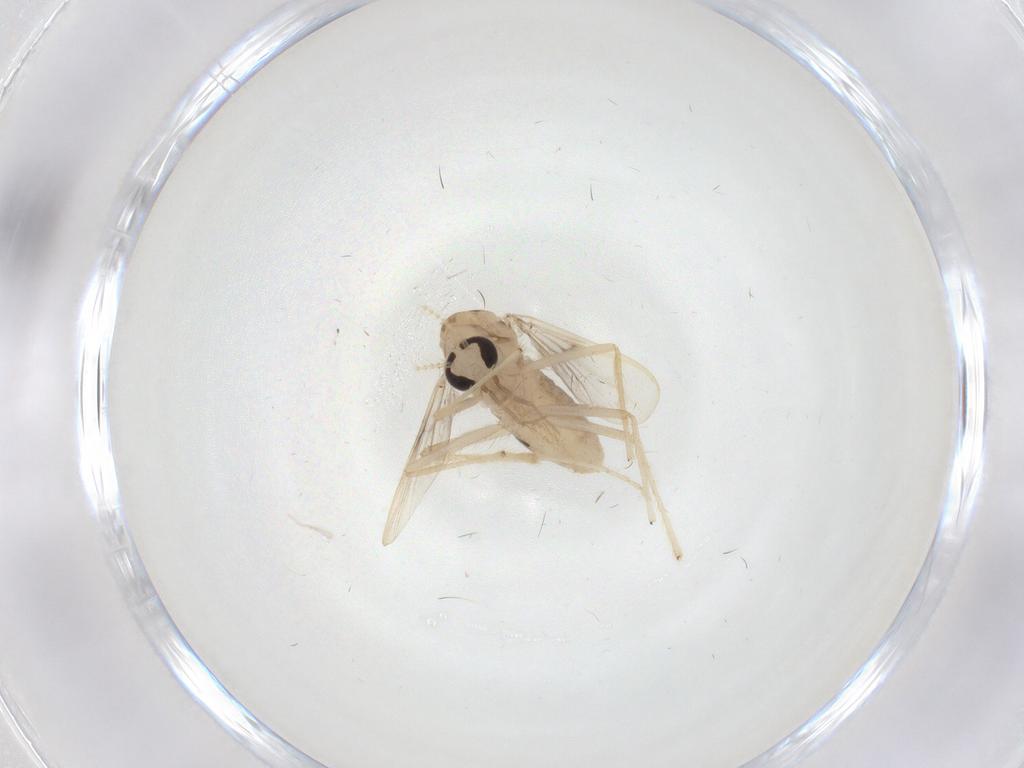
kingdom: Animalia
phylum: Arthropoda
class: Insecta
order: Diptera
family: Chironomidae
